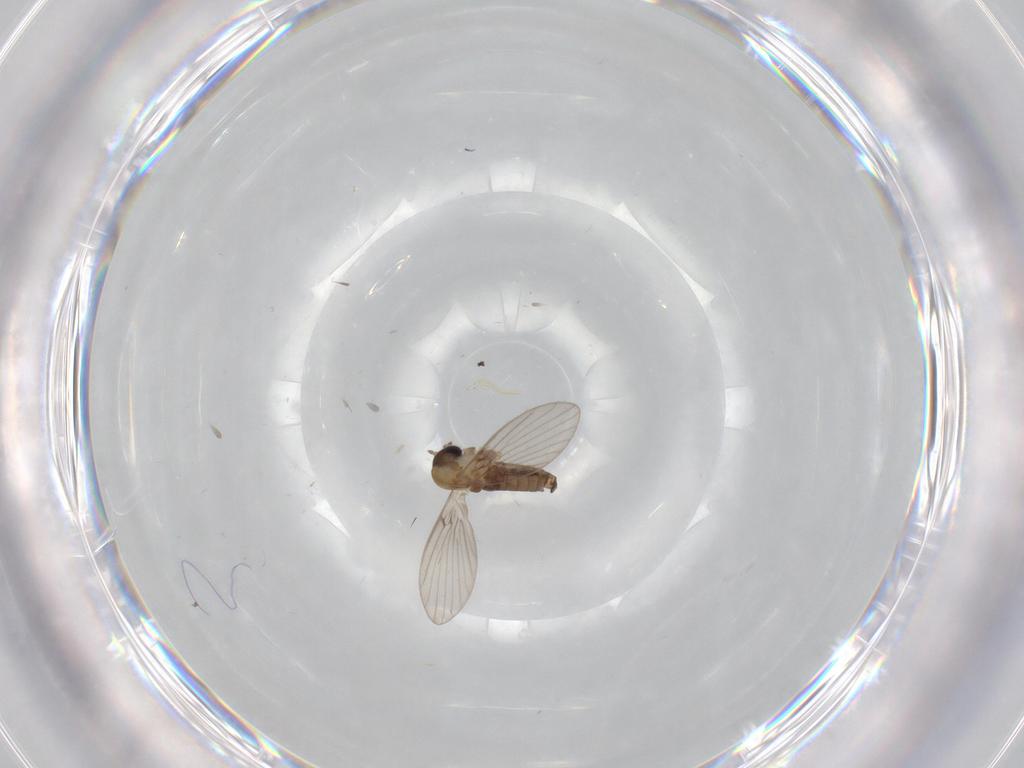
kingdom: Animalia
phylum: Arthropoda
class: Insecta
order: Diptera
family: Psychodidae
